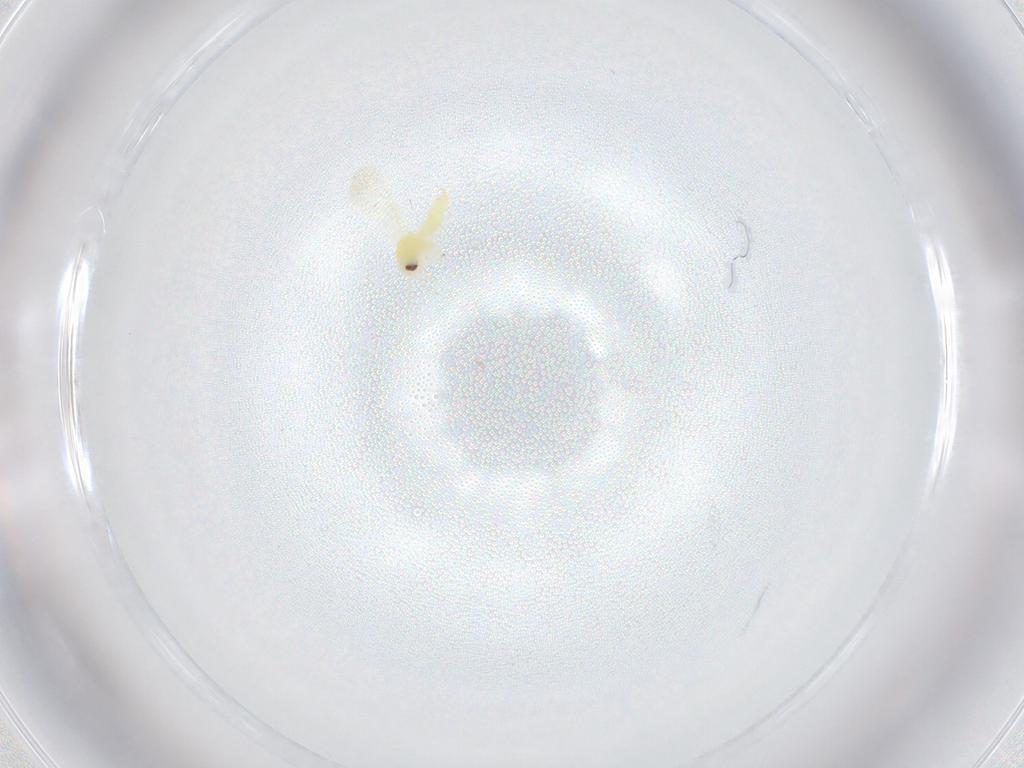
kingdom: Animalia
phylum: Arthropoda
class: Insecta
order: Hemiptera
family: Aleyrodidae
